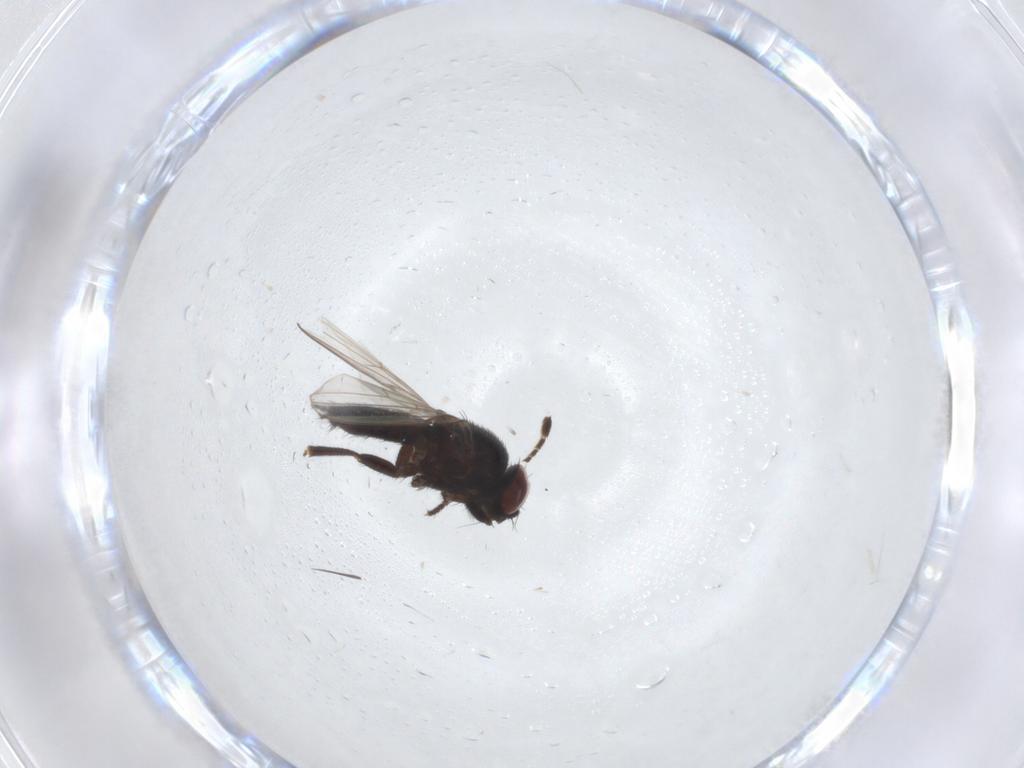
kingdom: Animalia
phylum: Arthropoda
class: Insecta
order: Diptera
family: Milichiidae
